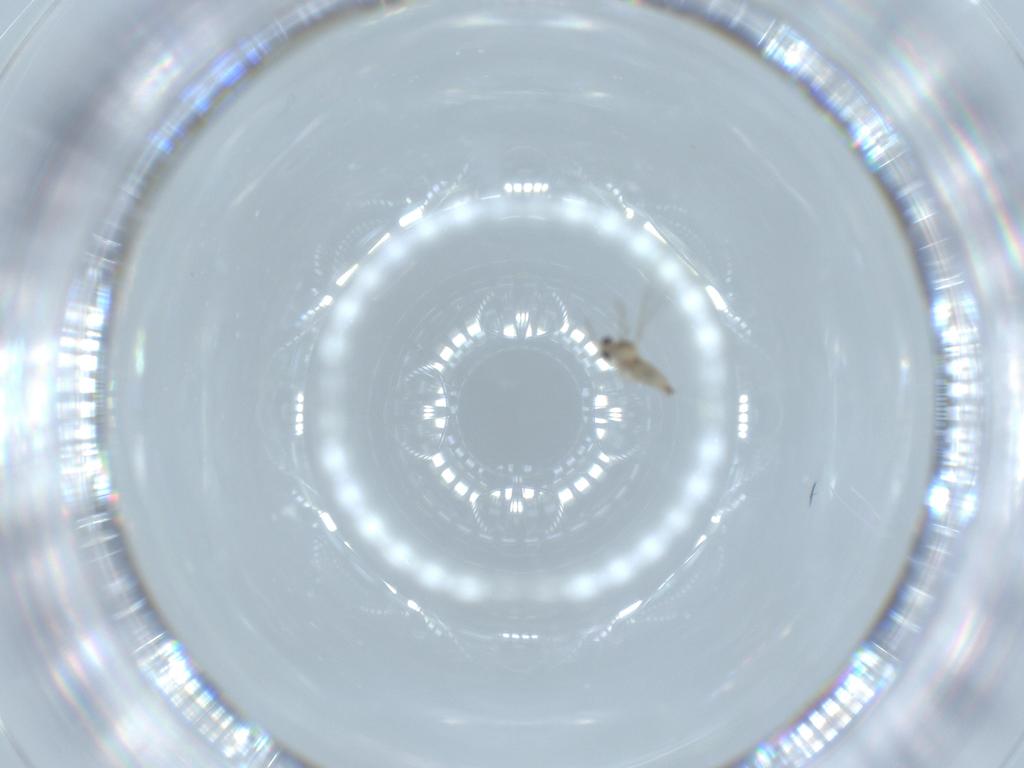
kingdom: Animalia
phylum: Arthropoda
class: Insecta
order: Diptera
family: Cecidomyiidae
